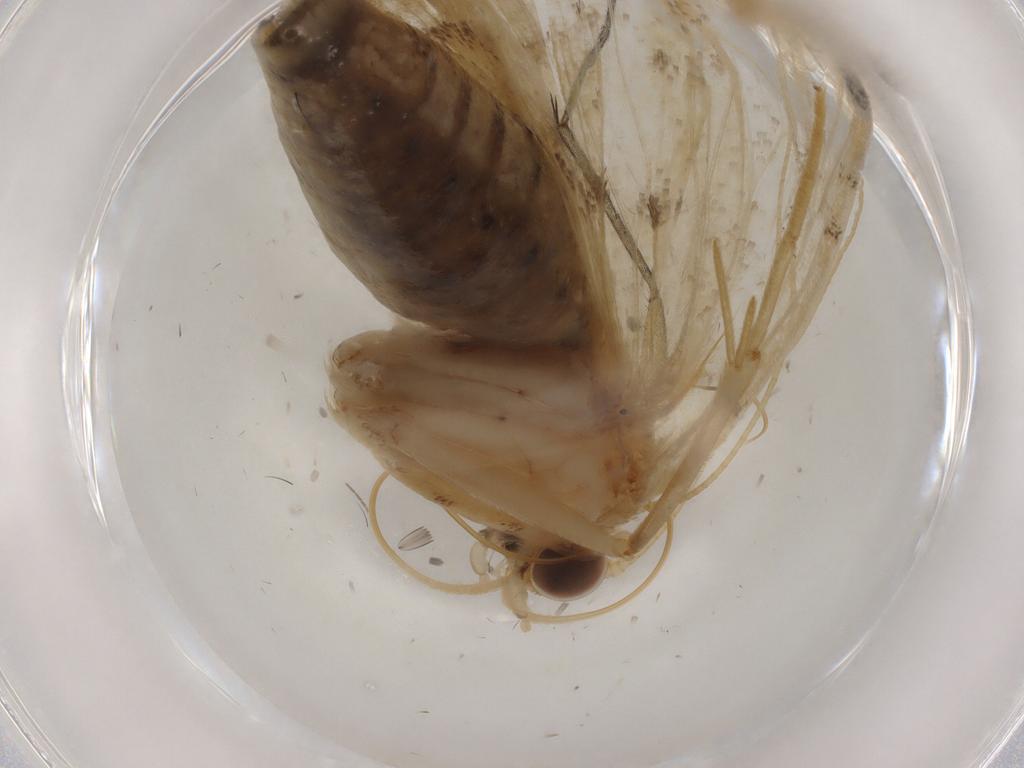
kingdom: Animalia
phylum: Arthropoda
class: Insecta
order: Lepidoptera
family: Crambidae
